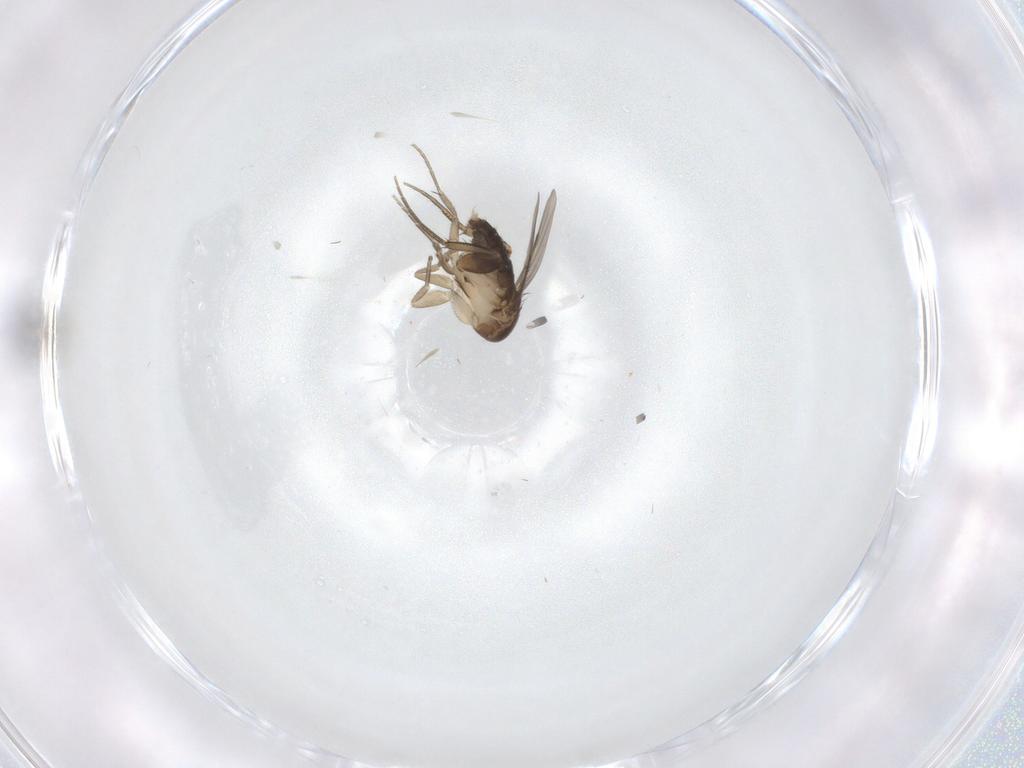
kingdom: Animalia
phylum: Arthropoda
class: Insecta
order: Diptera
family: Phoridae
